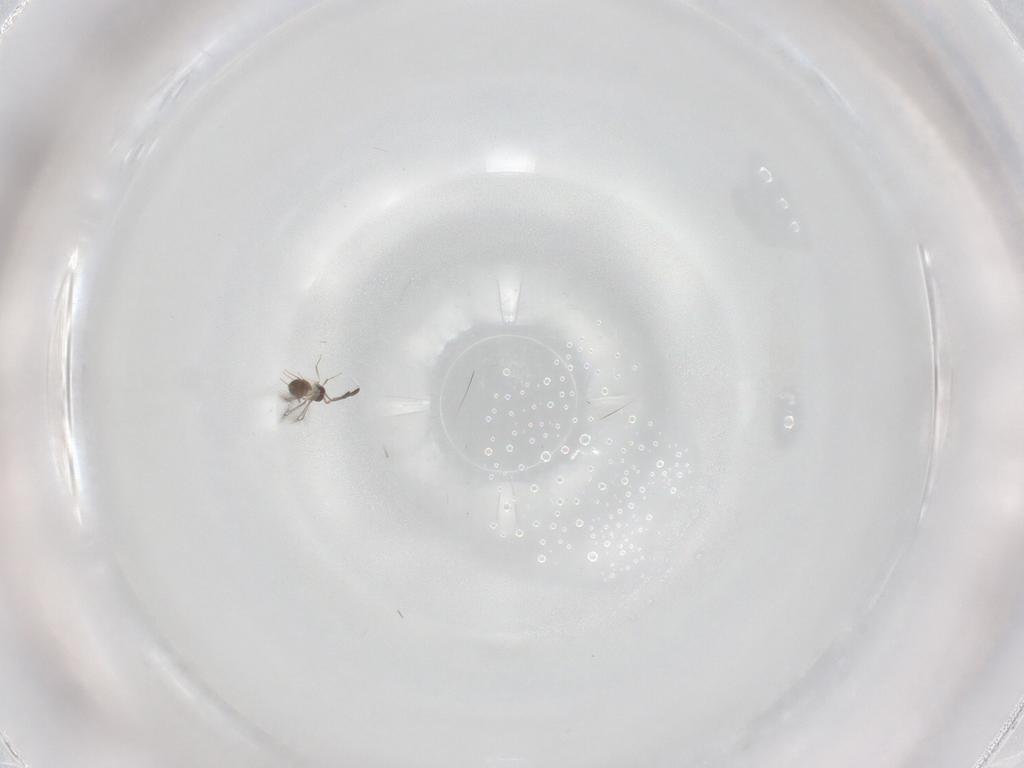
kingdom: Animalia
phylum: Arthropoda
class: Insecta
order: Hymenoptera
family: Mymaridae
